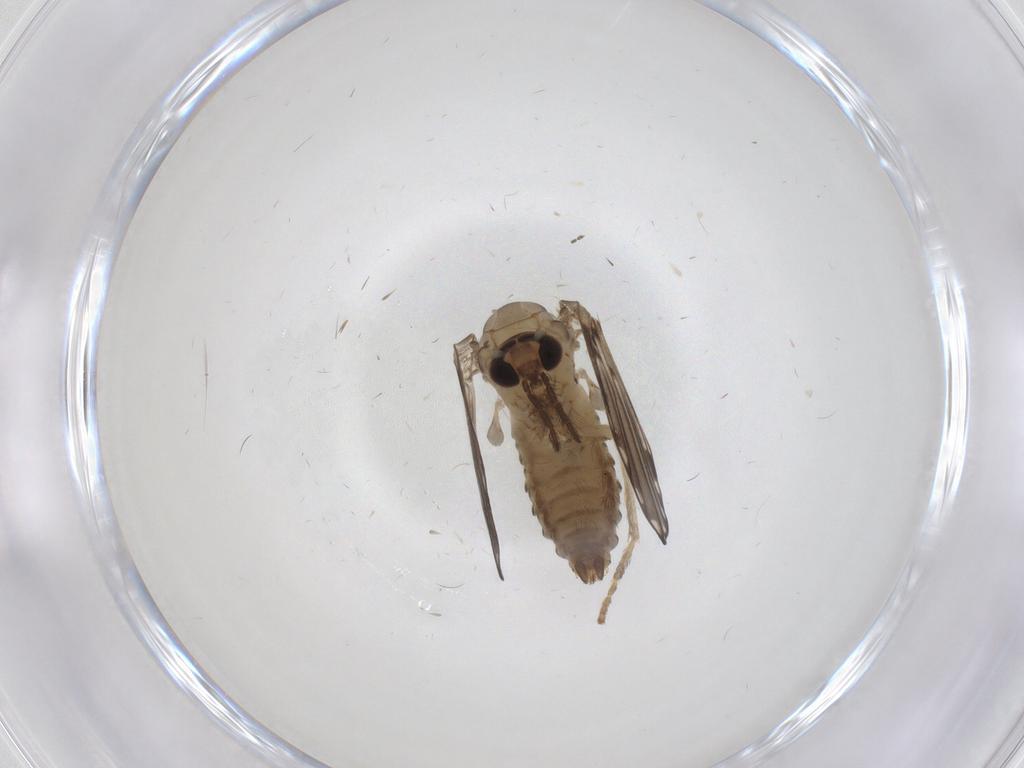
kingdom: Animalia
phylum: Arthropoda
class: Insecta
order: Diptera
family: Psychodidae
